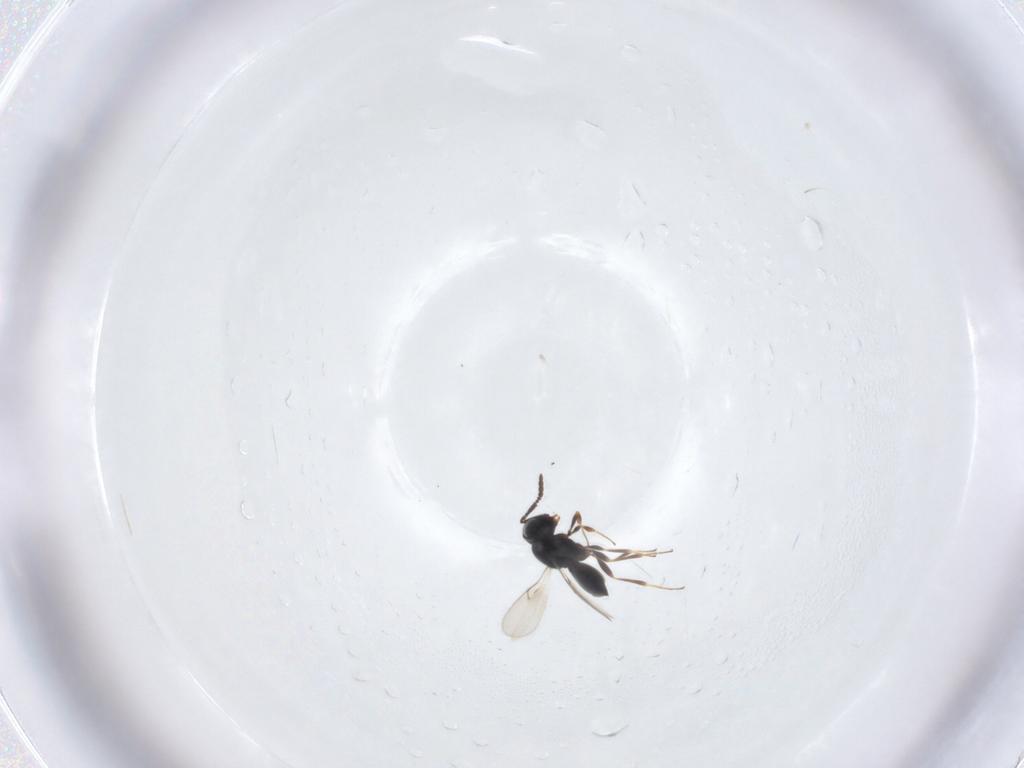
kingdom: Animalia
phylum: Arthropoda
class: Insecta
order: Hymenoptera
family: Scelionidae
